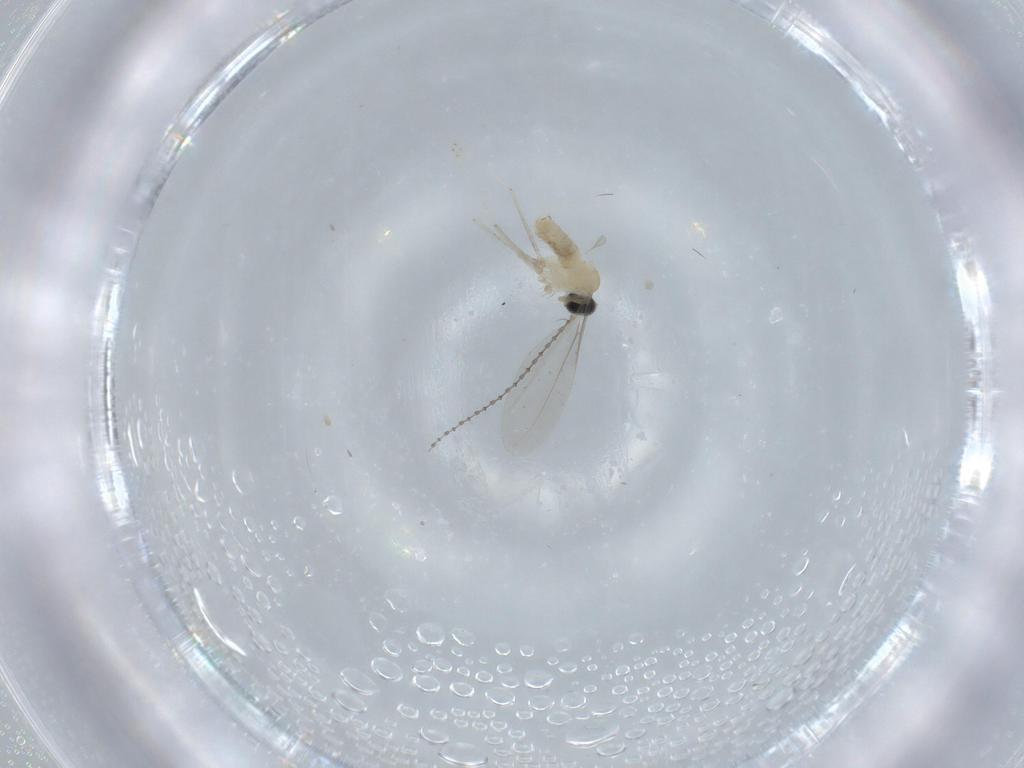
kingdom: Animalia
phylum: Arthropoda
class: Insecta
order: Diptera
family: Cecidomyiidae
